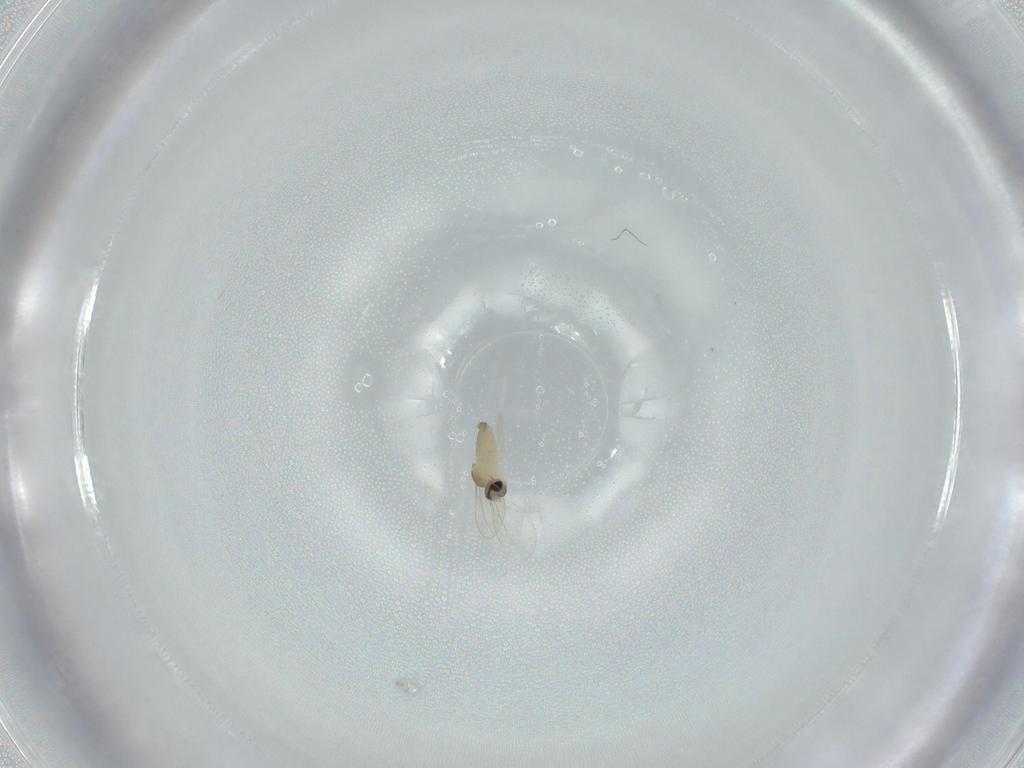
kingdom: Animalia
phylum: Arthropoda
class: Insecta
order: Diptera
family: Cecidomyiidae
